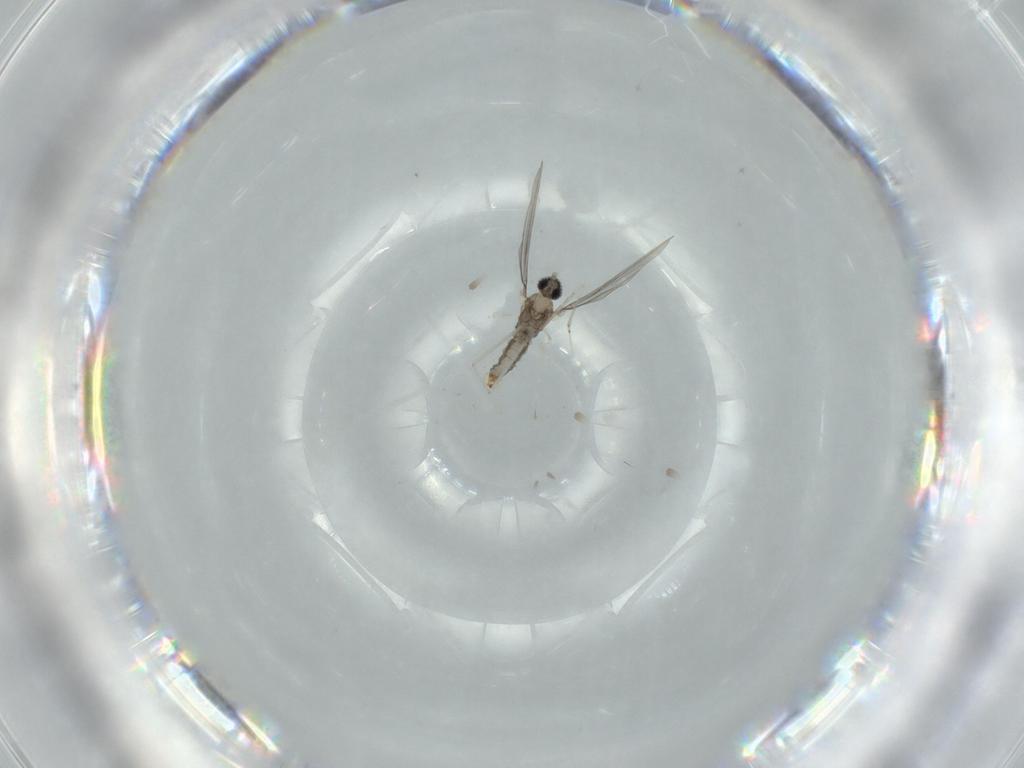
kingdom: Animalia
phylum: Arthropoda
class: Insecta
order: Diptera
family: Cecidomyiidae
